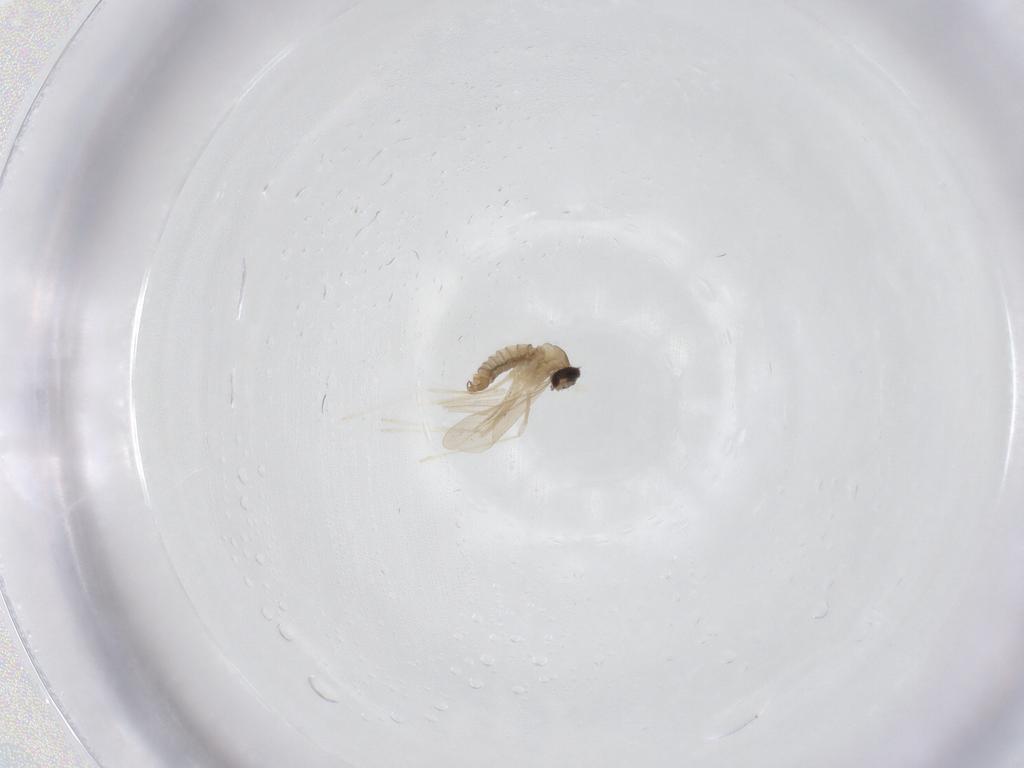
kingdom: Animalia
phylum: Arthropoda
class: Insecta
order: Diptera
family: Cecidomyiidae
